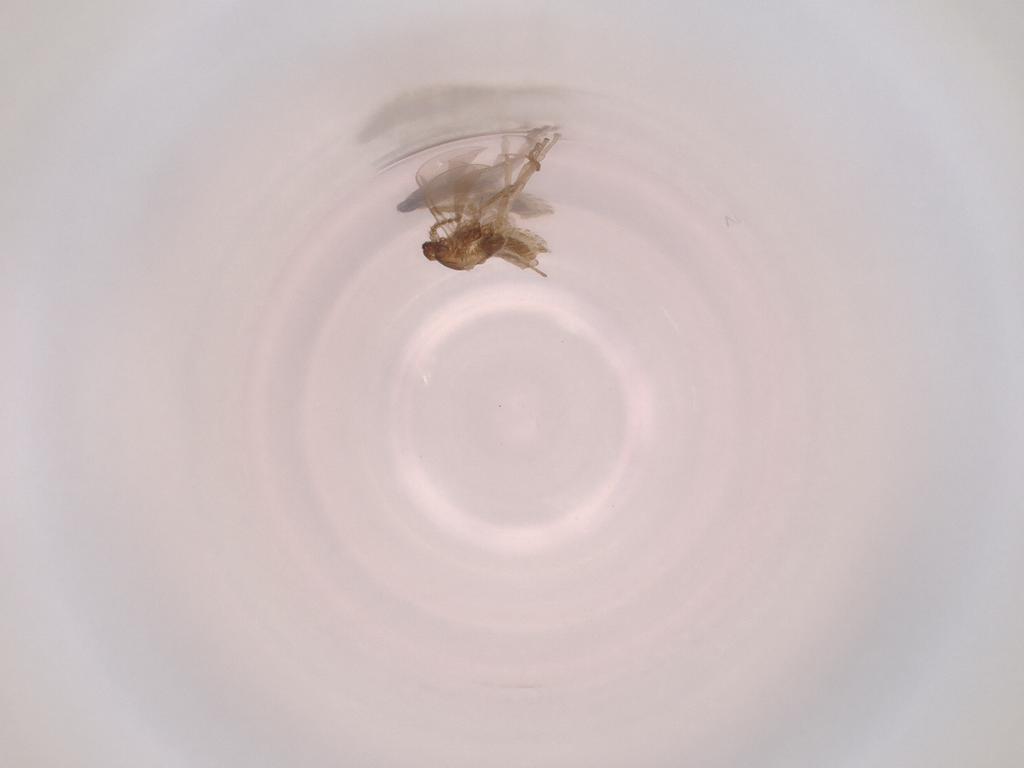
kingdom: Animalia
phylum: Arthropoda
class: Insecta
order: Diptera
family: Cecidomyiidae
